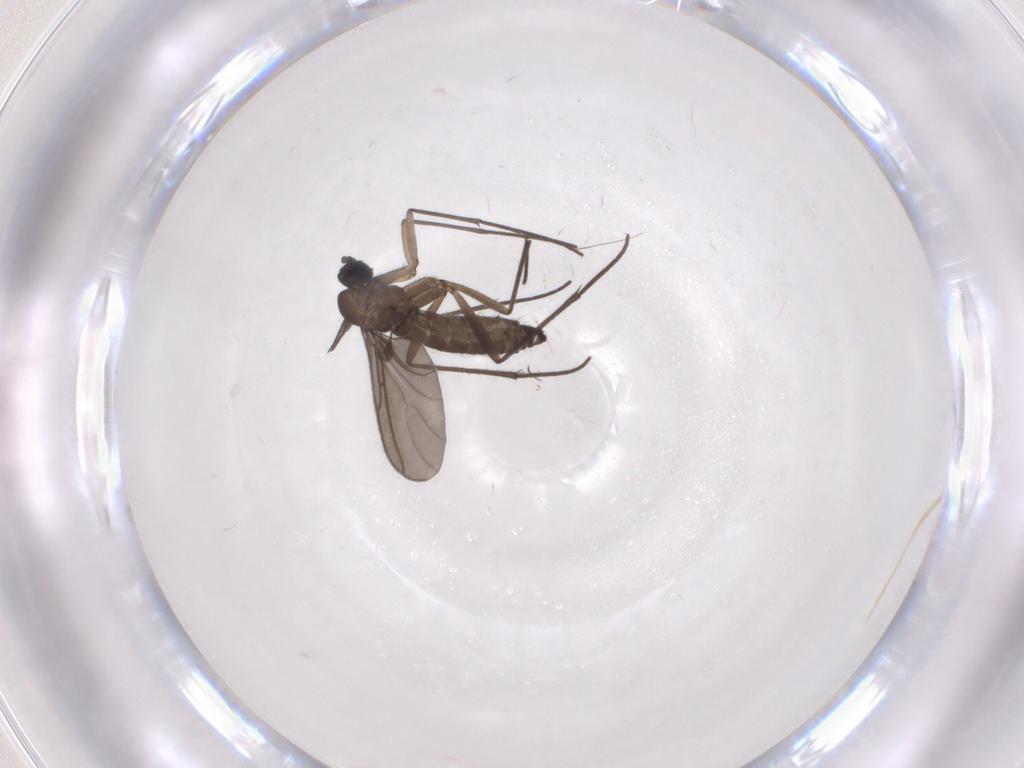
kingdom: Animalia
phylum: Arthropoda
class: Insecta
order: Diptera
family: Sciaridae
